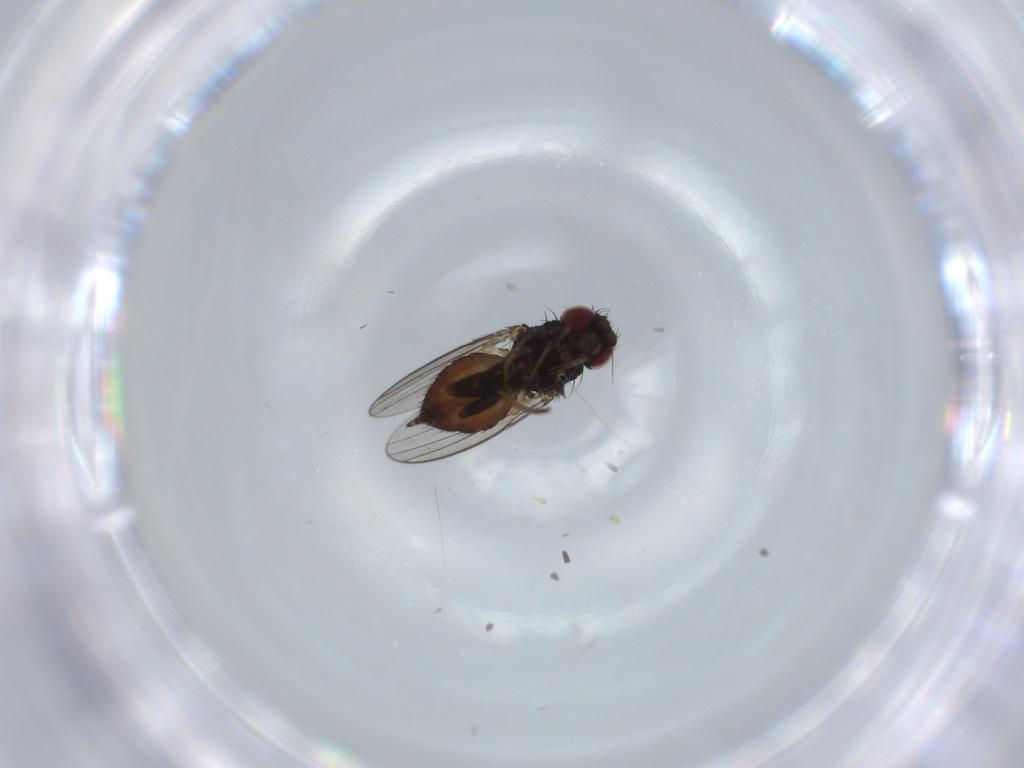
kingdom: Animalia
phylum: Arthropoda
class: Insecta
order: Diptera
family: Milichiidae
